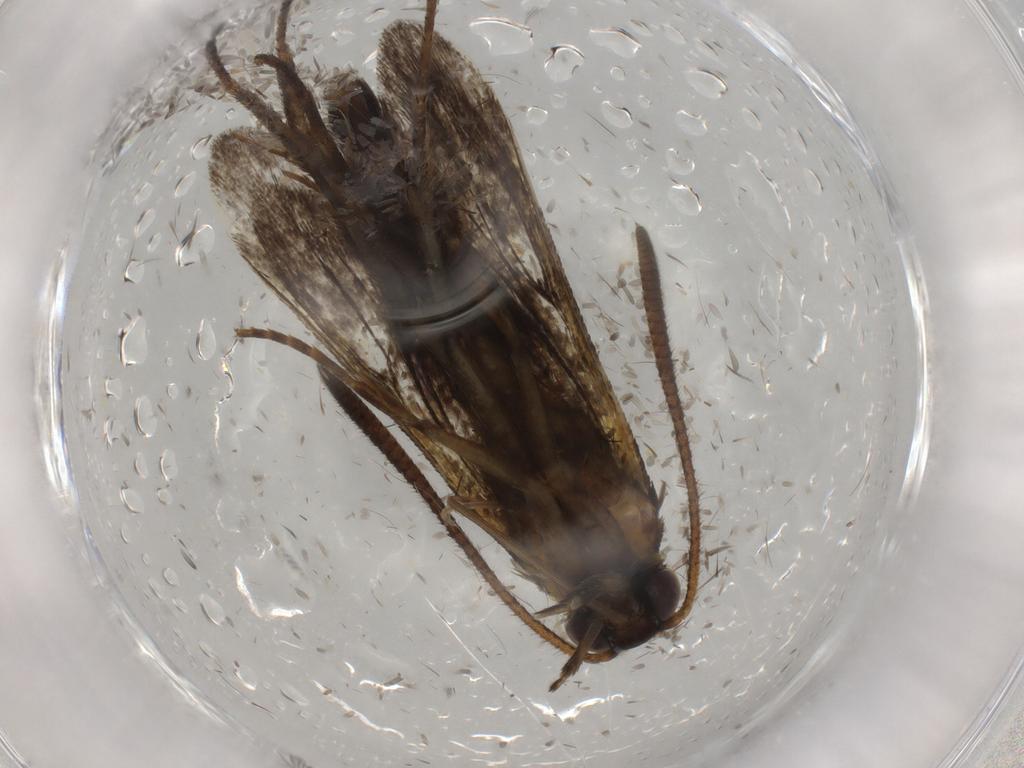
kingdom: Animalia
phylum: Arthropoda
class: Insecta
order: Lepidoptera
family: Sesiidae
